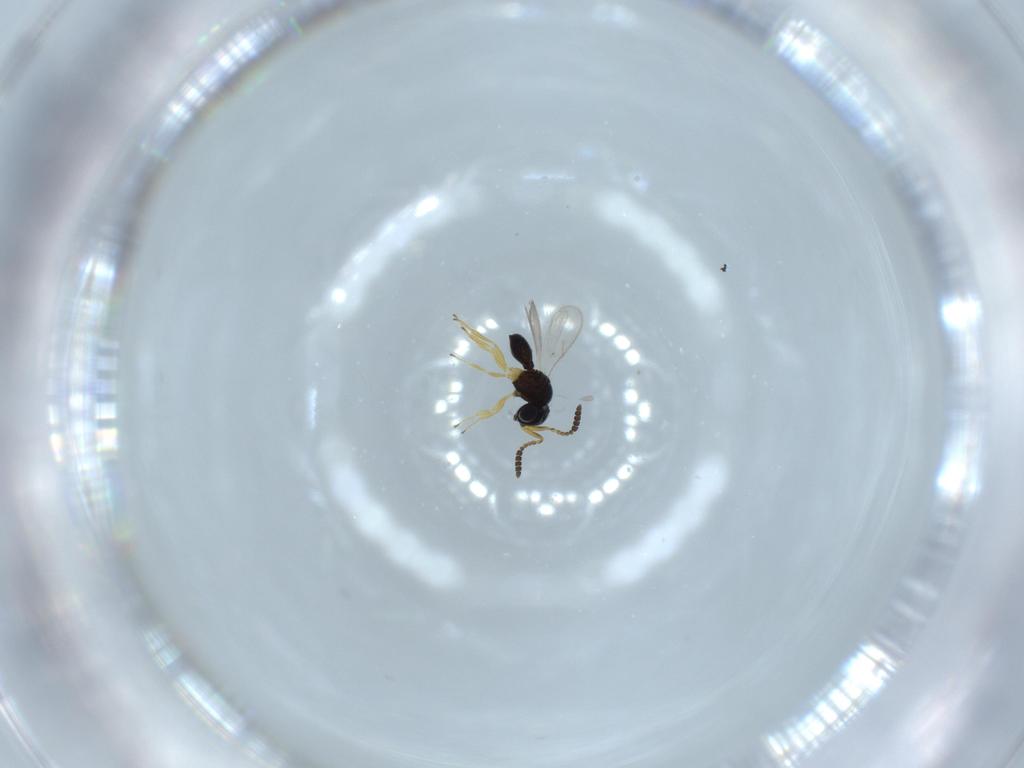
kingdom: Animalia
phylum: Arthropoda
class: Insecta
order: Hymenoptera
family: Scelionidae
